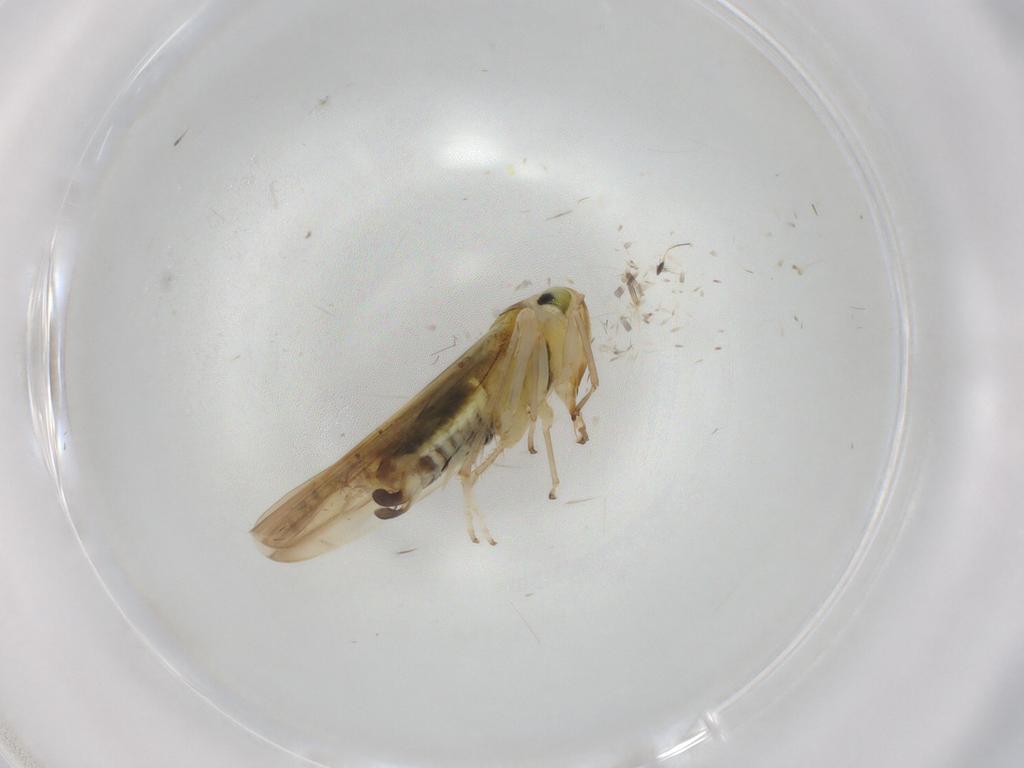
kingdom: Animalia
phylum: Arthropoda
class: Insecta
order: Hemiptera
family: Cicadellidae
